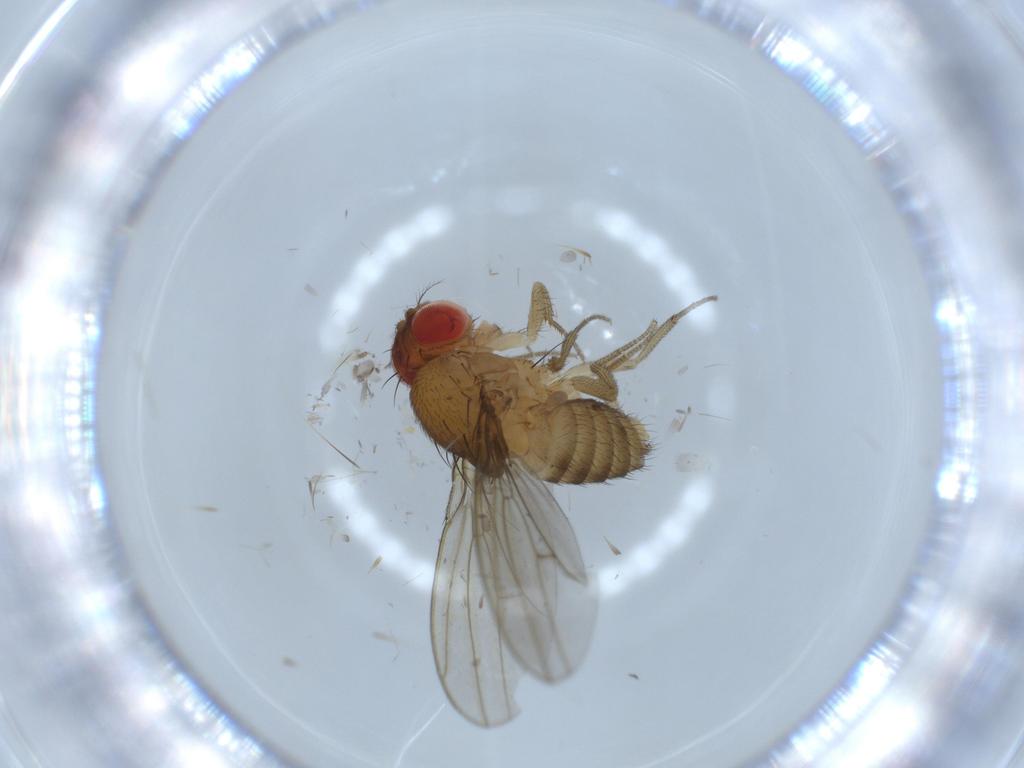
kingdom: Animalia
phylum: Arthropoda
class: Insecta
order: Diptera
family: Drosophilidae
